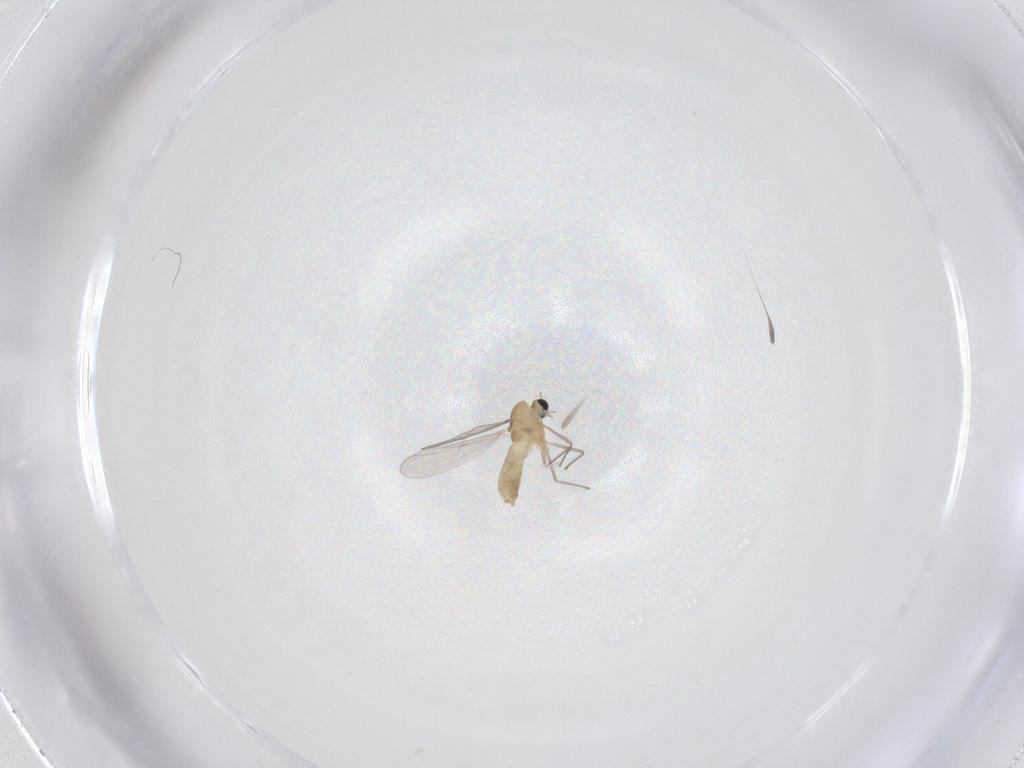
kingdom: Animalia
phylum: Arthropoda
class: Insecta
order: Diptera
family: Chironomidae
